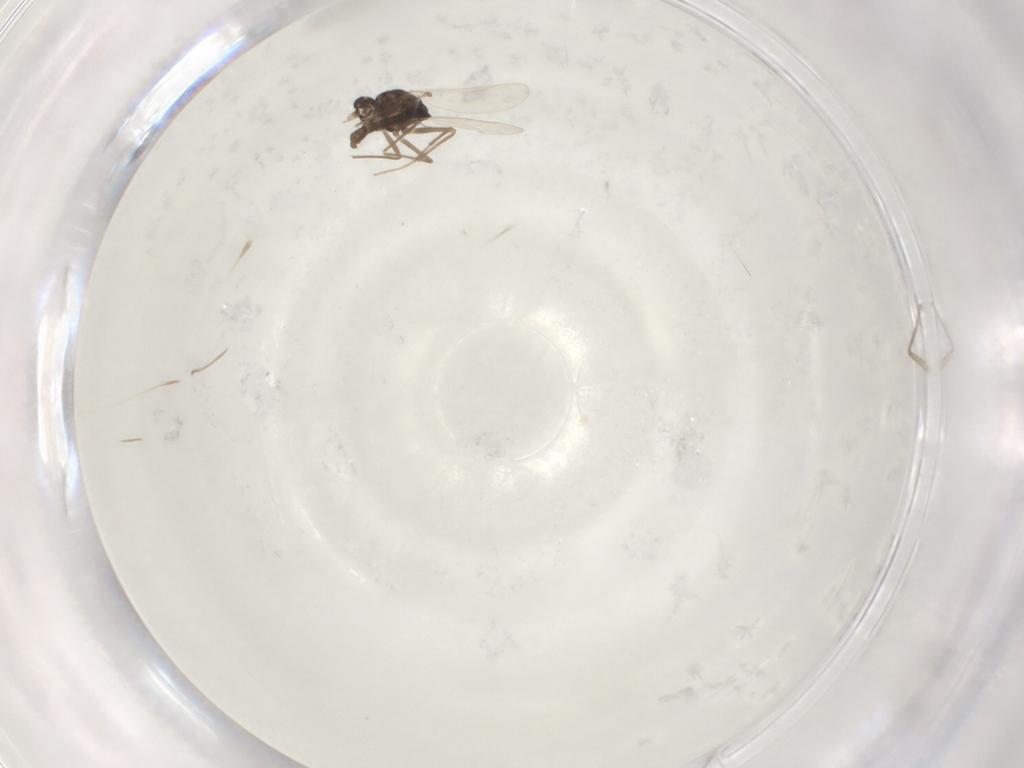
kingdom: Animalia
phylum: Arthropoda
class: Insecta
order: Diptera
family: Chironomidae
